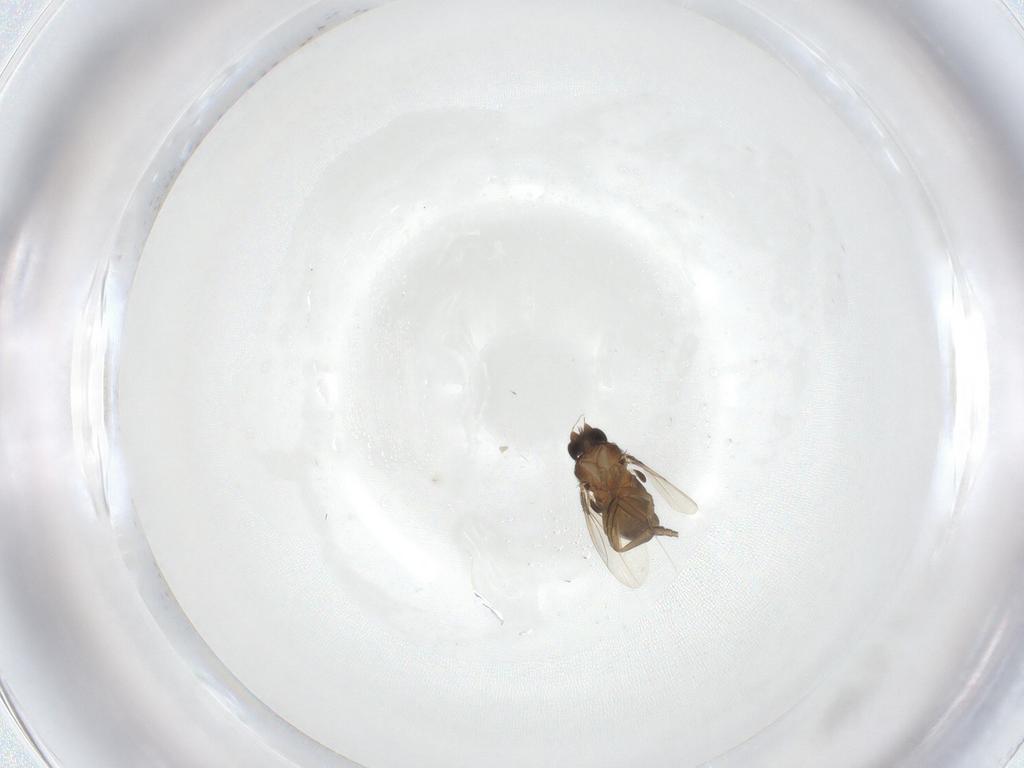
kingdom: Animalia
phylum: Arthropoda
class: Insecta
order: Diptera
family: Phoridae
